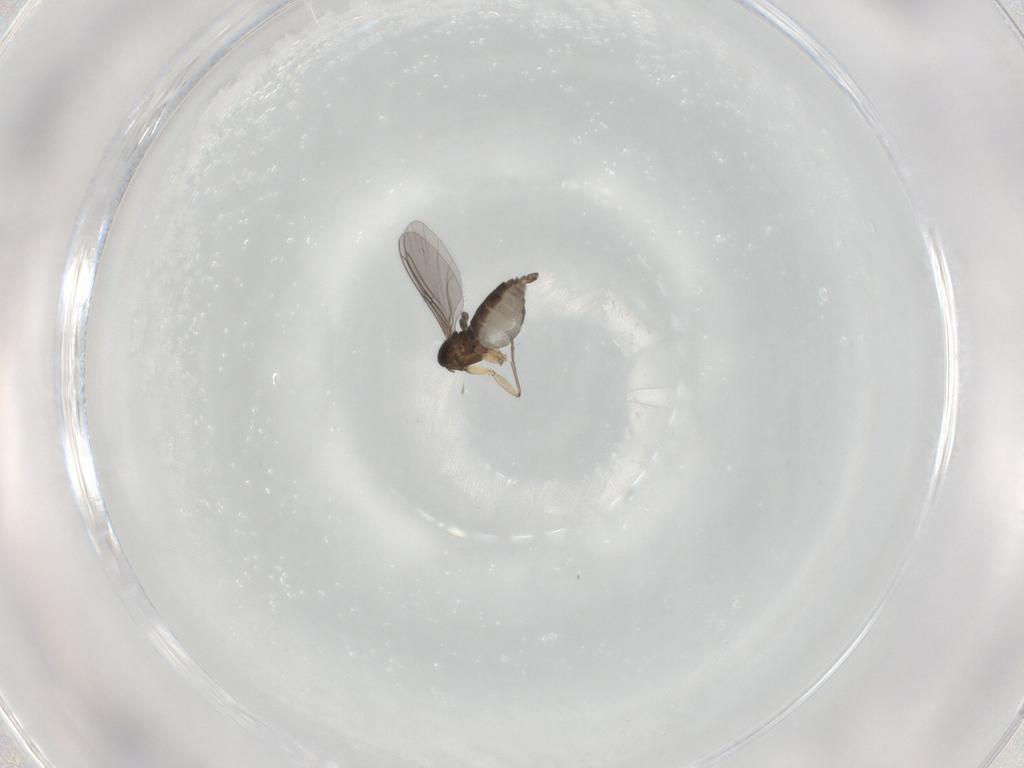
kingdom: Animalia
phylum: Arthropoda
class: Insecta
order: Diptera
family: Sciaridae
